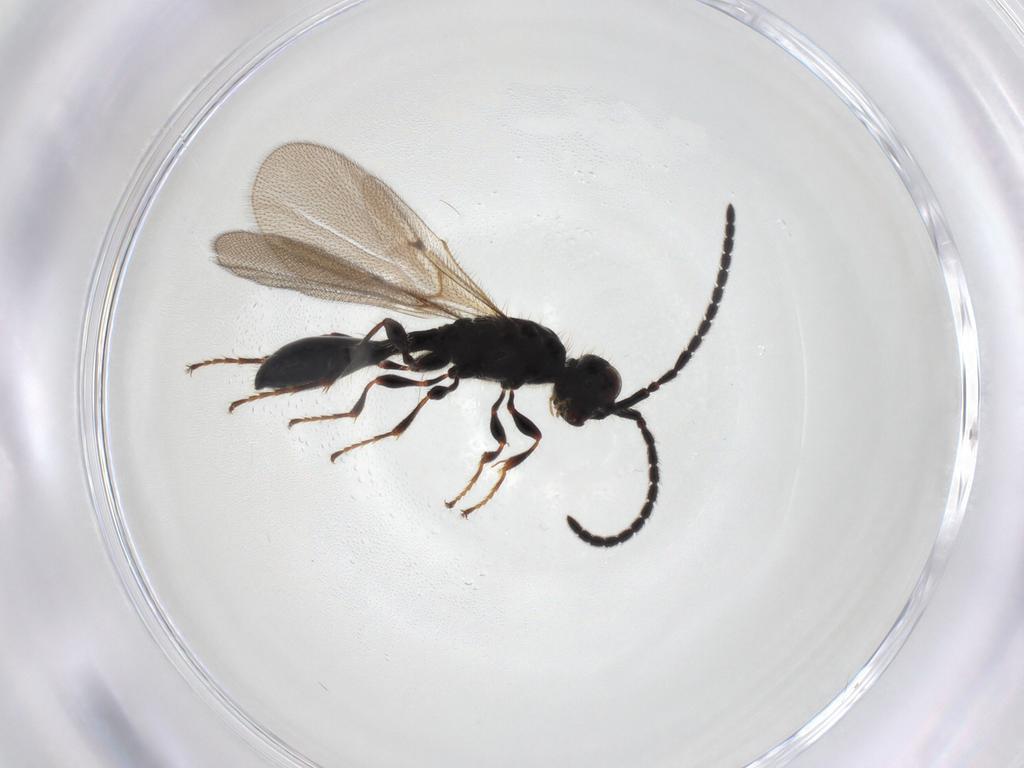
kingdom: Animalia
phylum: Arthropoda
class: Insecta
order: Hymenoptera
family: Diapriidae
